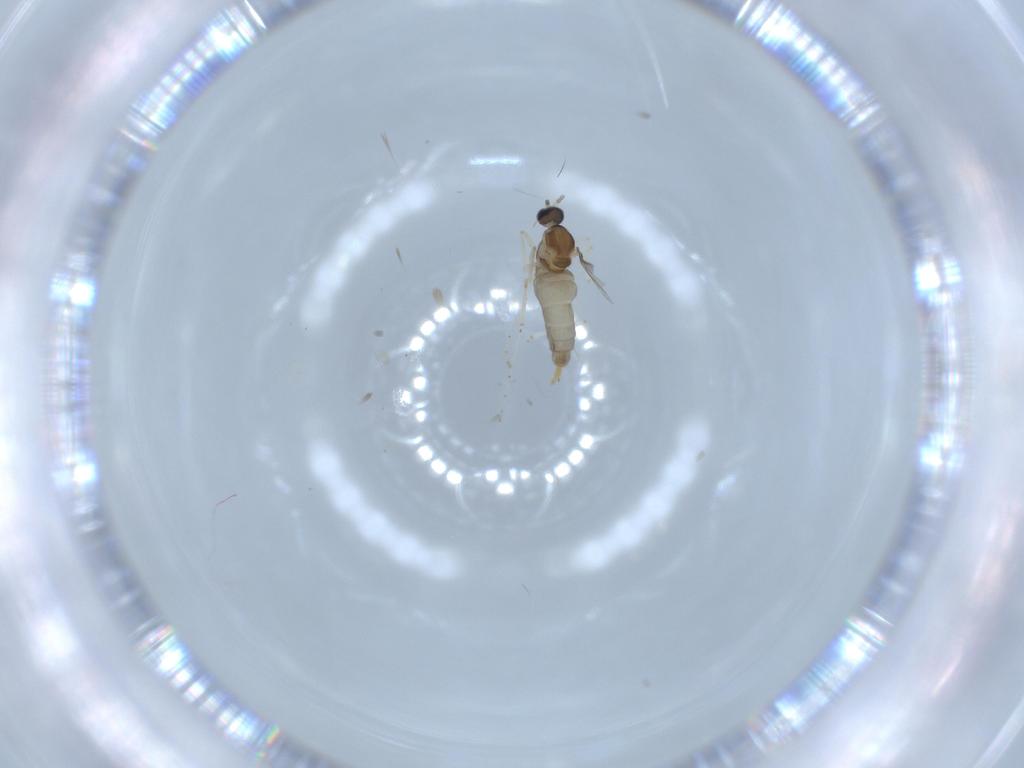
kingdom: Animalia
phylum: Arthropoda
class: Insecta
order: Diptera
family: Cecidomyiidae
